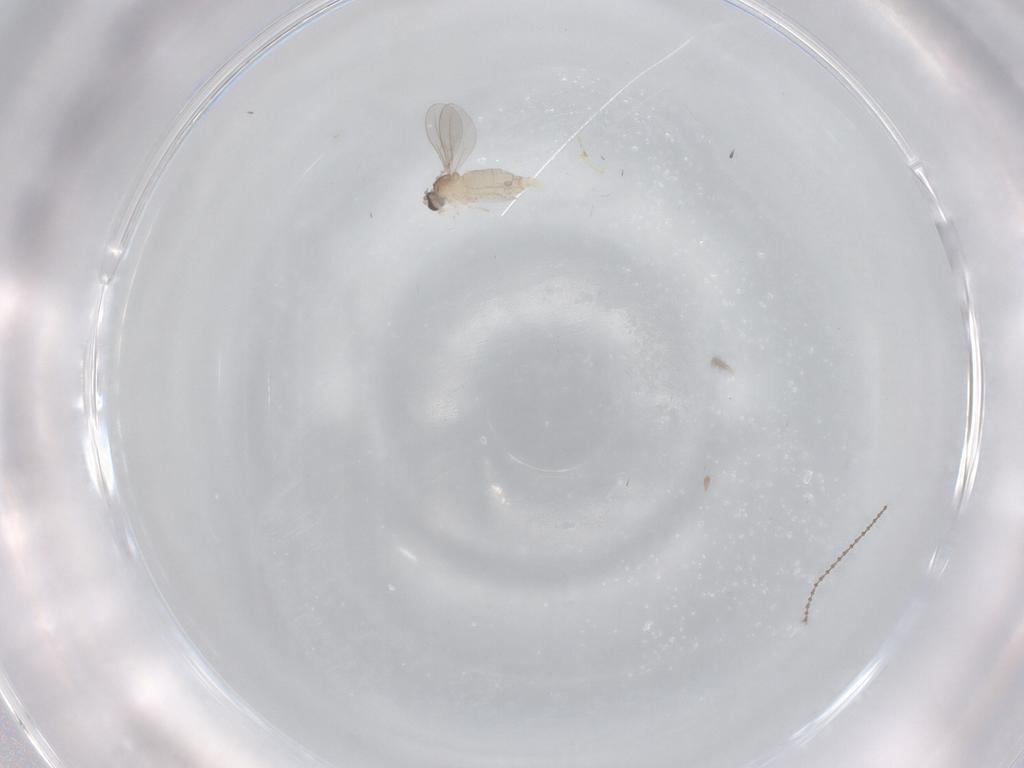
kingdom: Animalia
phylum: Arthropoda
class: Insecta
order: Diptera
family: Cecidomyiidae
